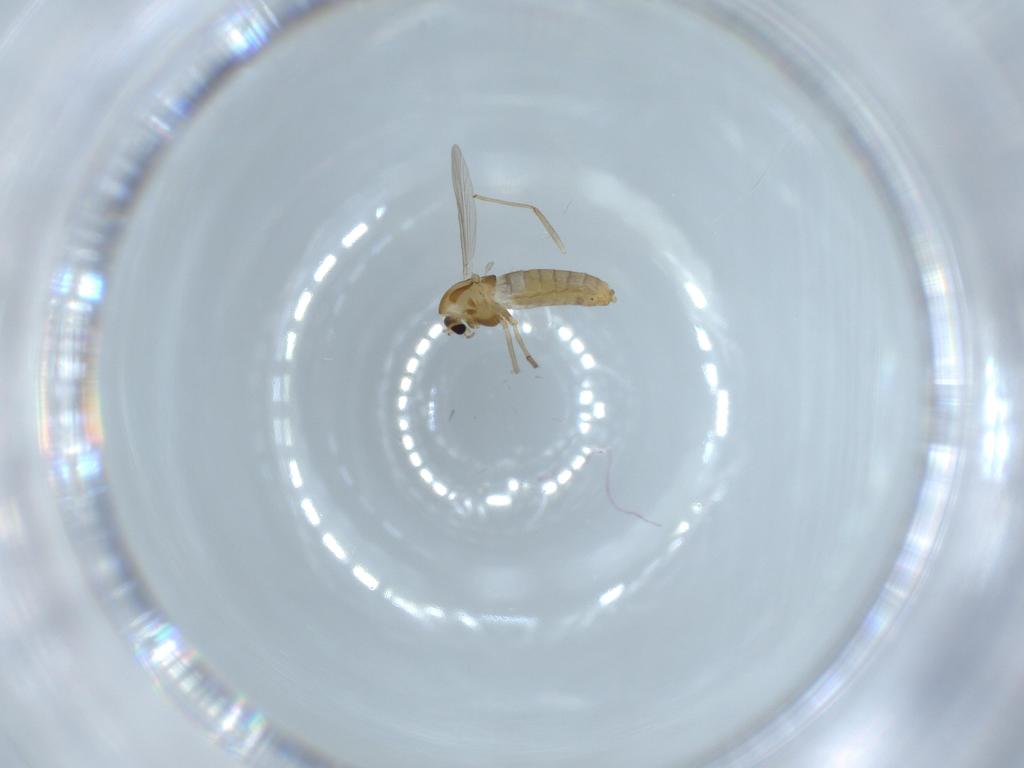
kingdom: Animalia
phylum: Arthropoda
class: Insecta
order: Diptera
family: Chironomidae
